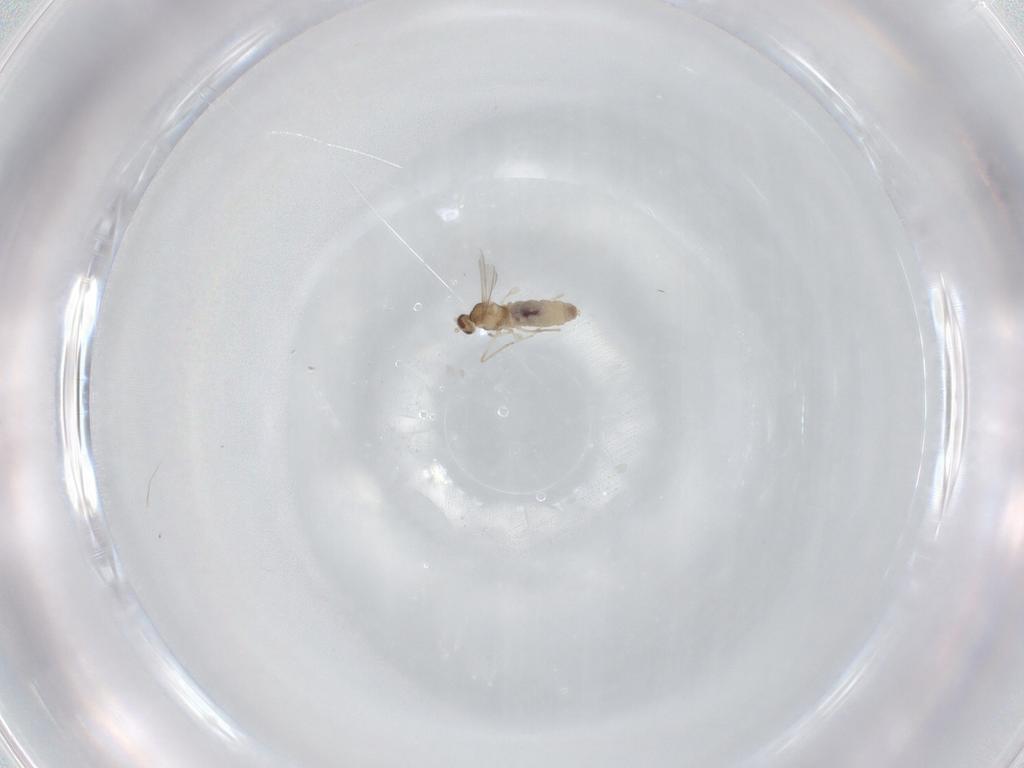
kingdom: Animalia
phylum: Arthropoda
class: Insecta
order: Diptera
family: Cecidomyiidae
